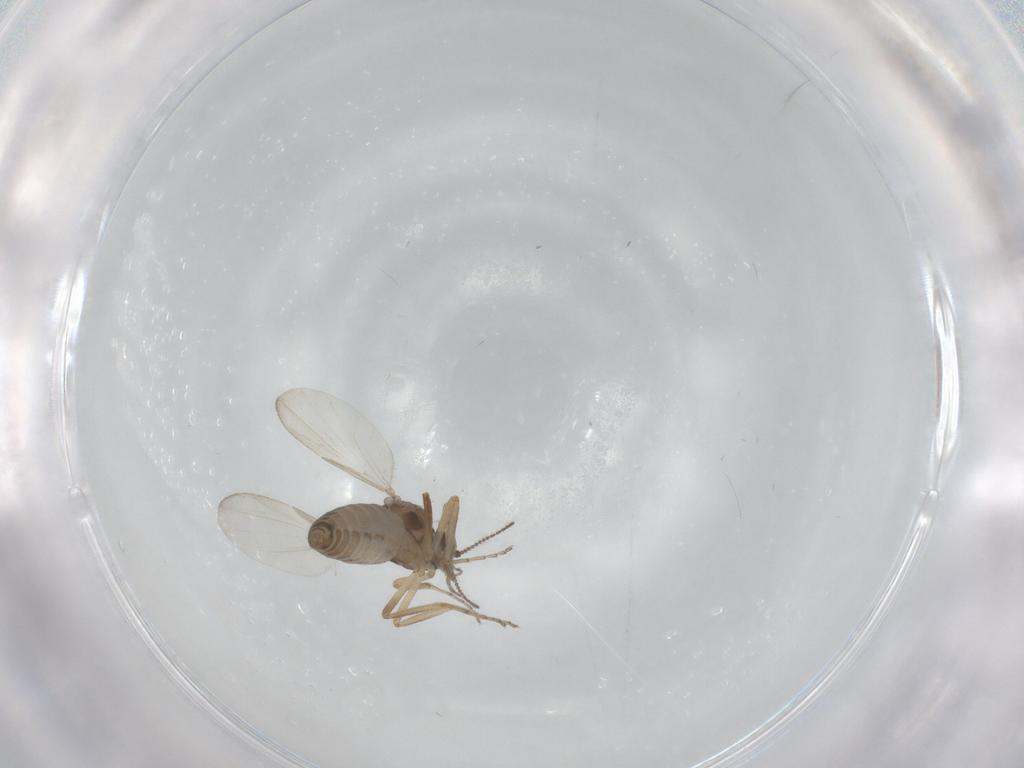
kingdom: Animalia
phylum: Arthropoda
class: Insecta
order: Diptera
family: Ceratopogonidae
